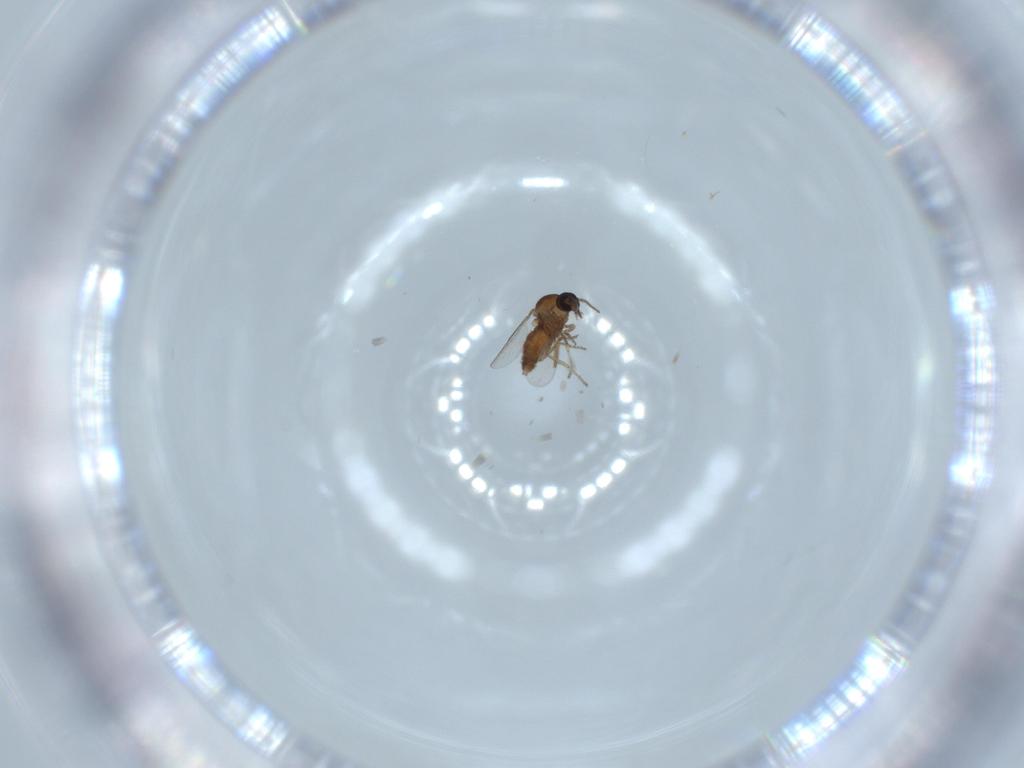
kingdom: Animalia
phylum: Arthropoda
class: Insecta
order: Diptera
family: Ceratopogonidae
